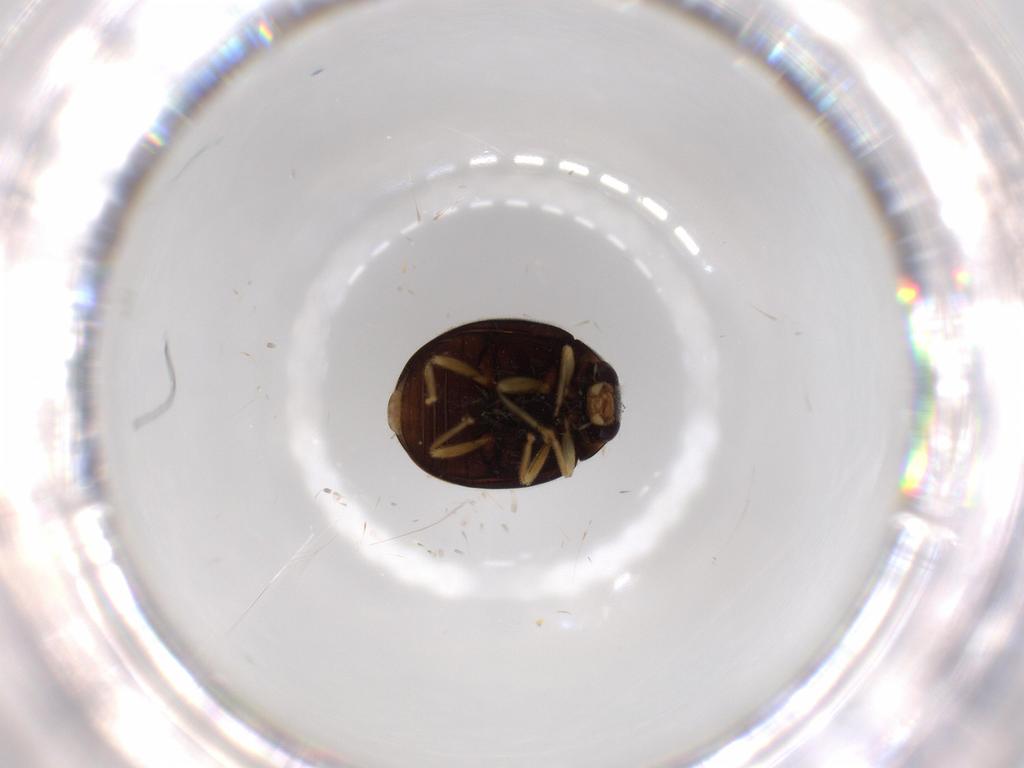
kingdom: Animalia
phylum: Arthropoda
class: Insecta
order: Coleoptera
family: Coccinellidae
